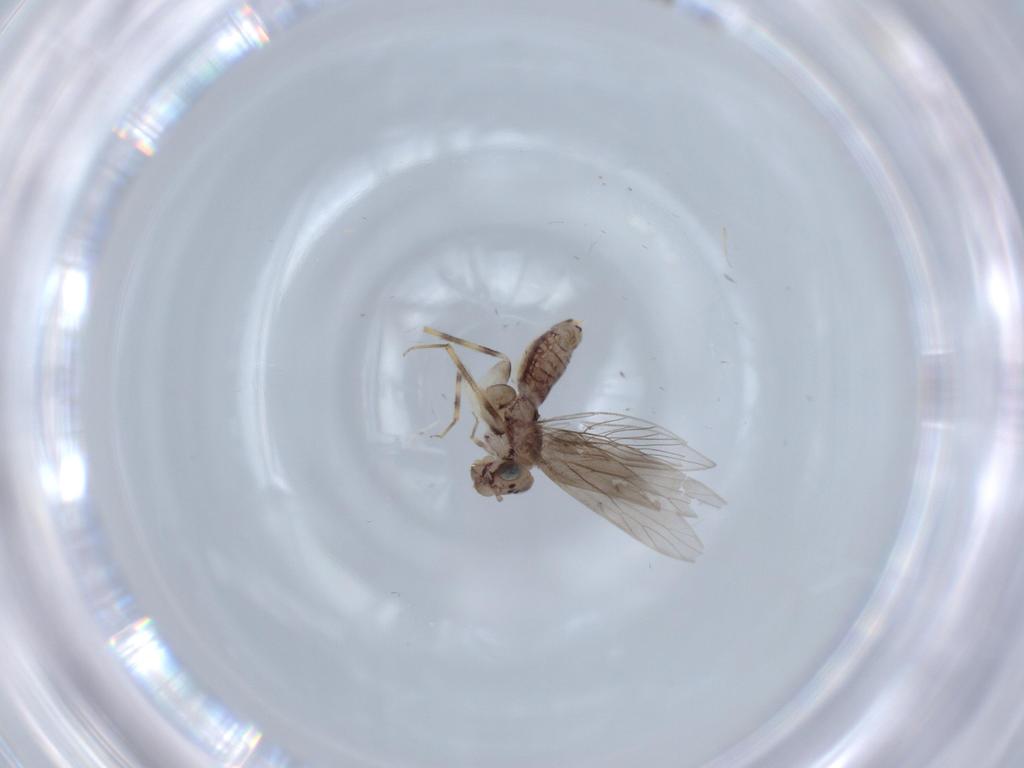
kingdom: Animalia
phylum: Arthropoda
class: Insecta
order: Psocodea
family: Lepidopsocidae
